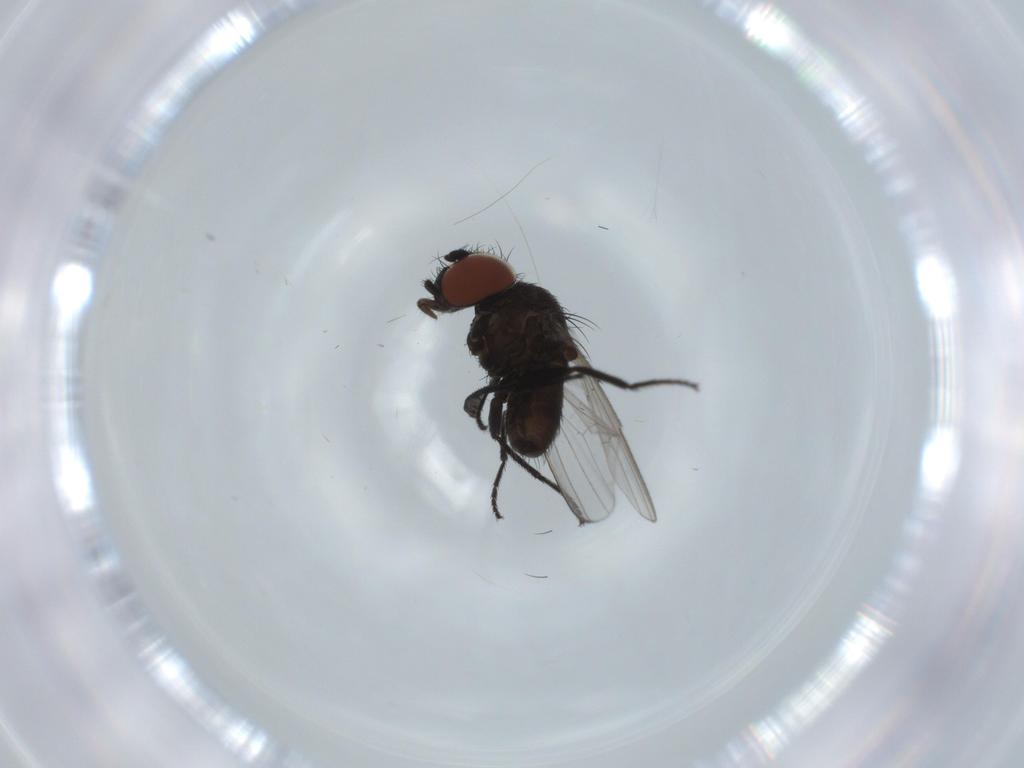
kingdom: Animalia
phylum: Arthropoda
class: Insecta
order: Diptera
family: Milichiidae
